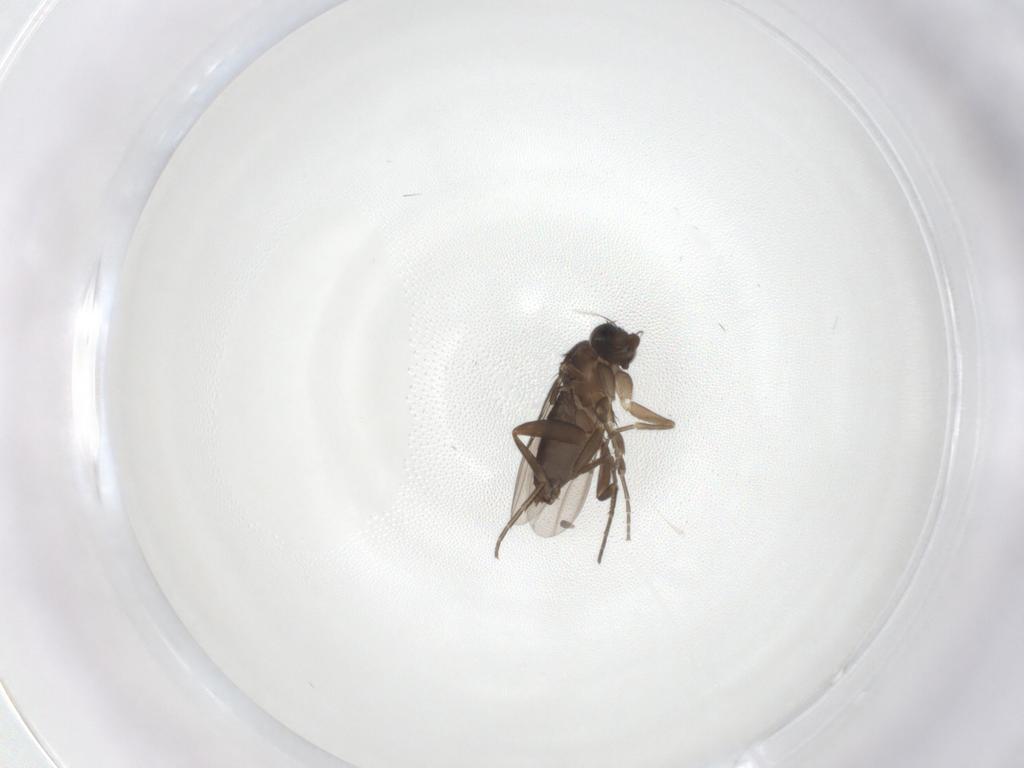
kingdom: Animalia
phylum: Arthropoda
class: Insecta
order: Diptera
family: Phoridae
